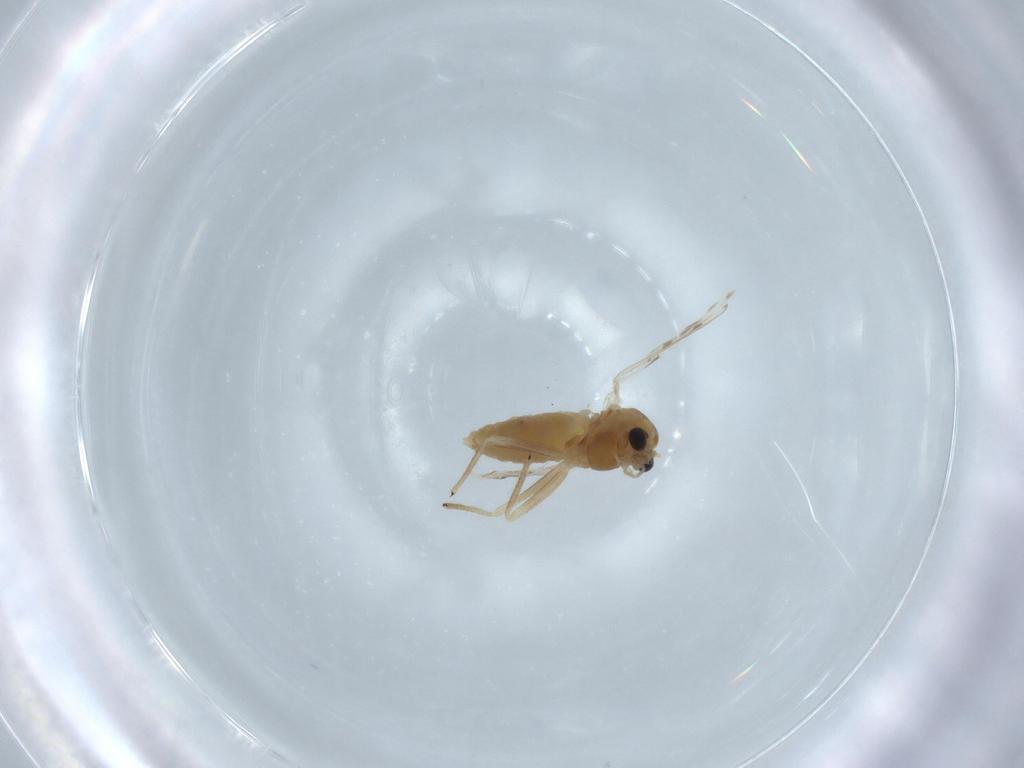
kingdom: Animalia
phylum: Arthropoda
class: Insecta
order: Diptera
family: Chironomidae
